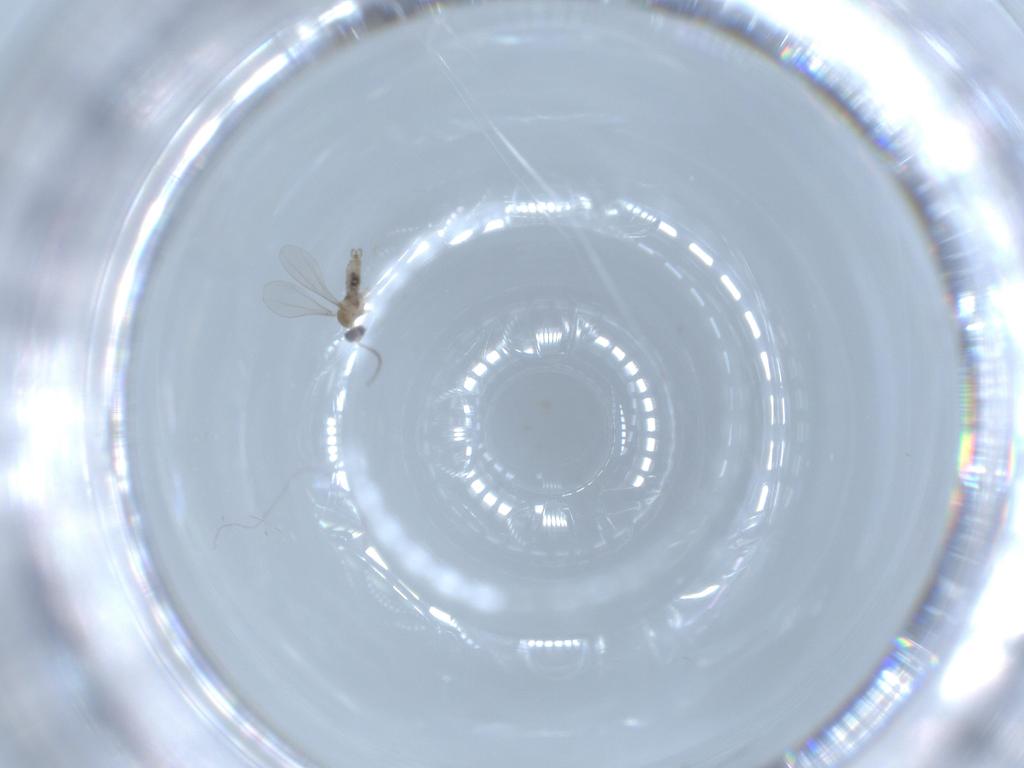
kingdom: Animalia
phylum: Arthropoda
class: Insecta
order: Diptera
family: Cecidomyiidae
